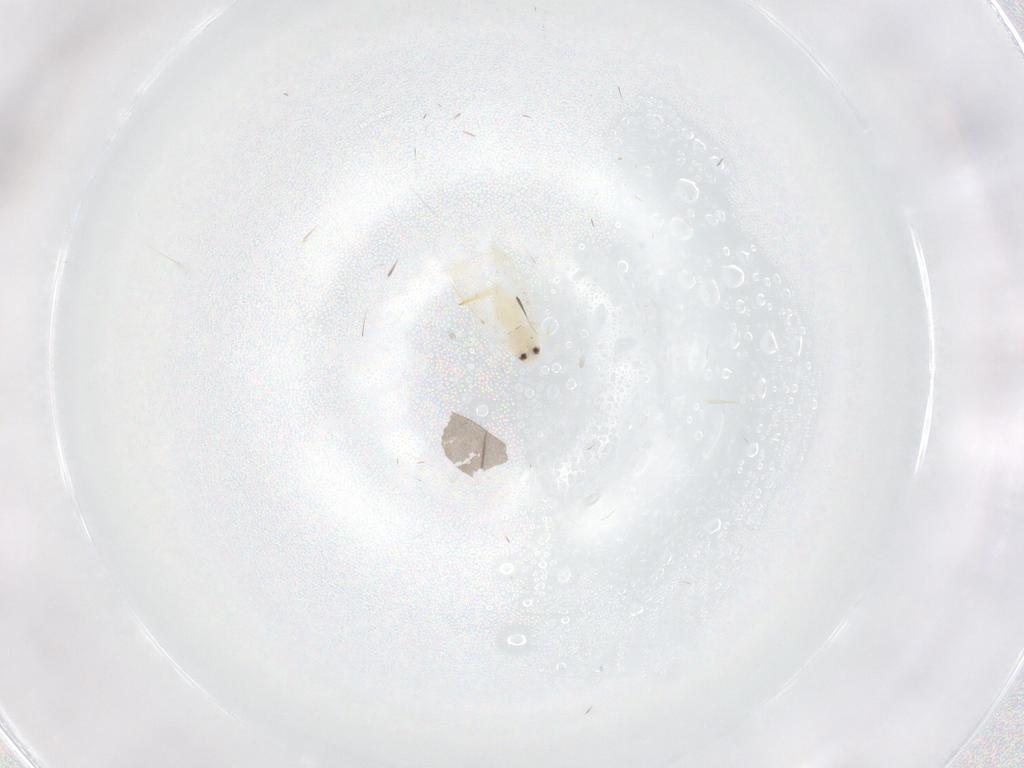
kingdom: Animalia
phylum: Arthropoda
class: Insecta
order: Hemiptera
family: Aleyrodidae
